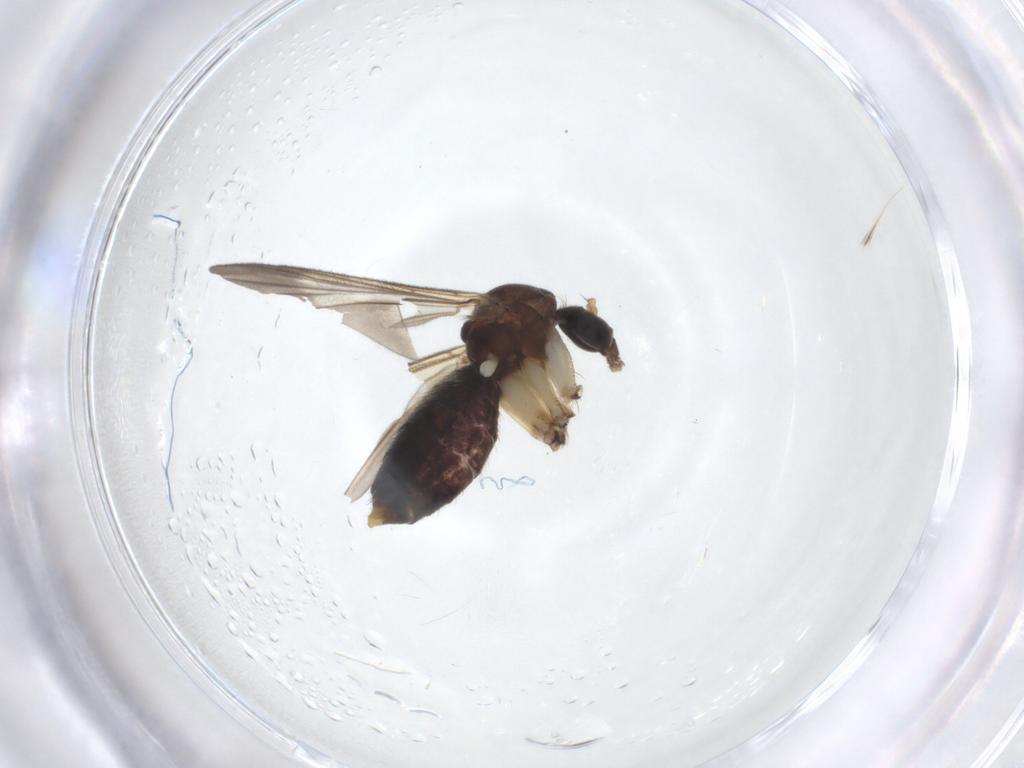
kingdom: Animalia
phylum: Arthropoda
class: Insecta
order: Diptera
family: Mycetophilidae
